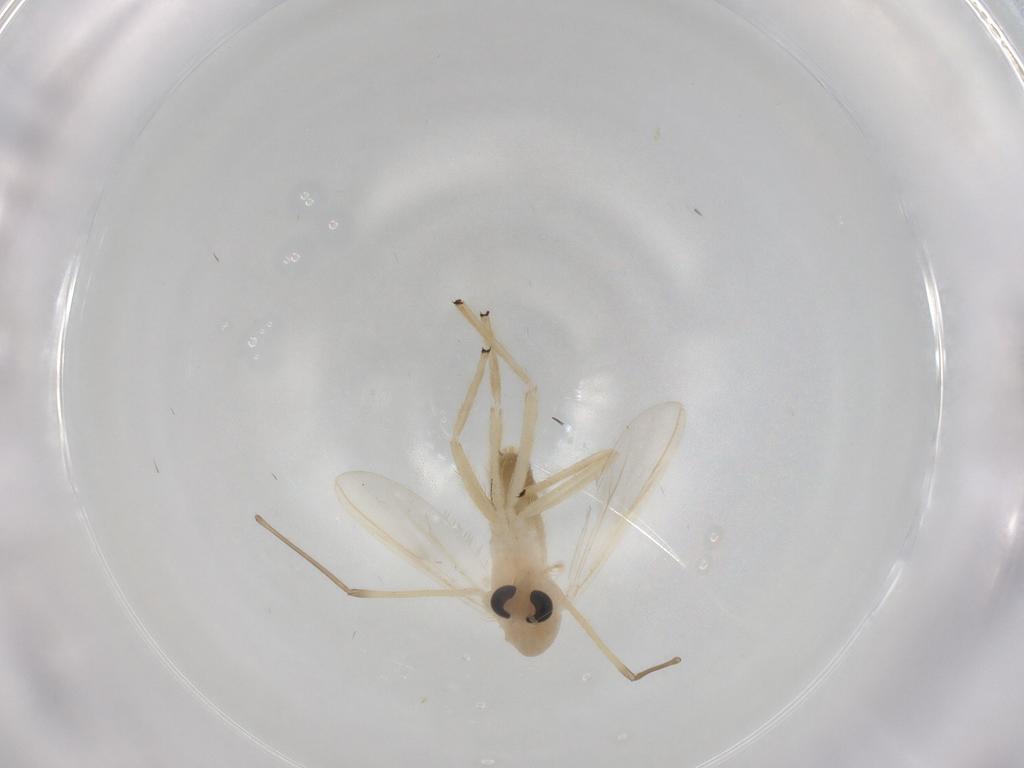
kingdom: Animalia
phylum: Arthropoda
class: Insecta
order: Diptera
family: Chironomidae
